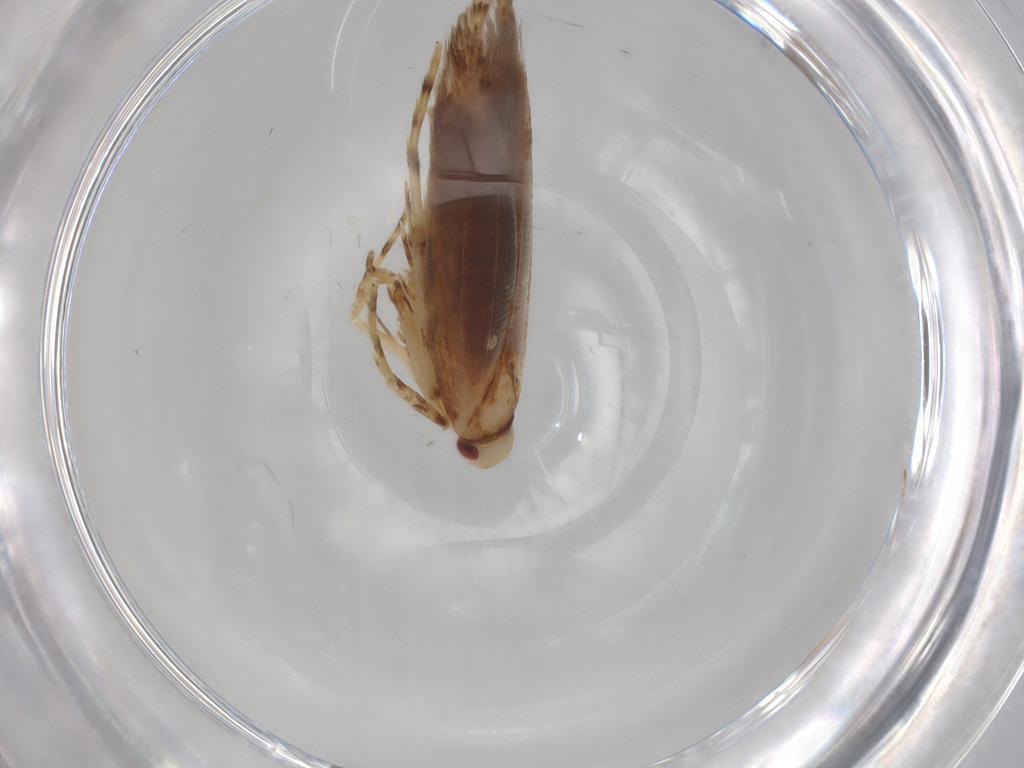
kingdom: Animalia
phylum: Arthropoda
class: Insecta
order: Lepidoptera
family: Cosmopterigidae
